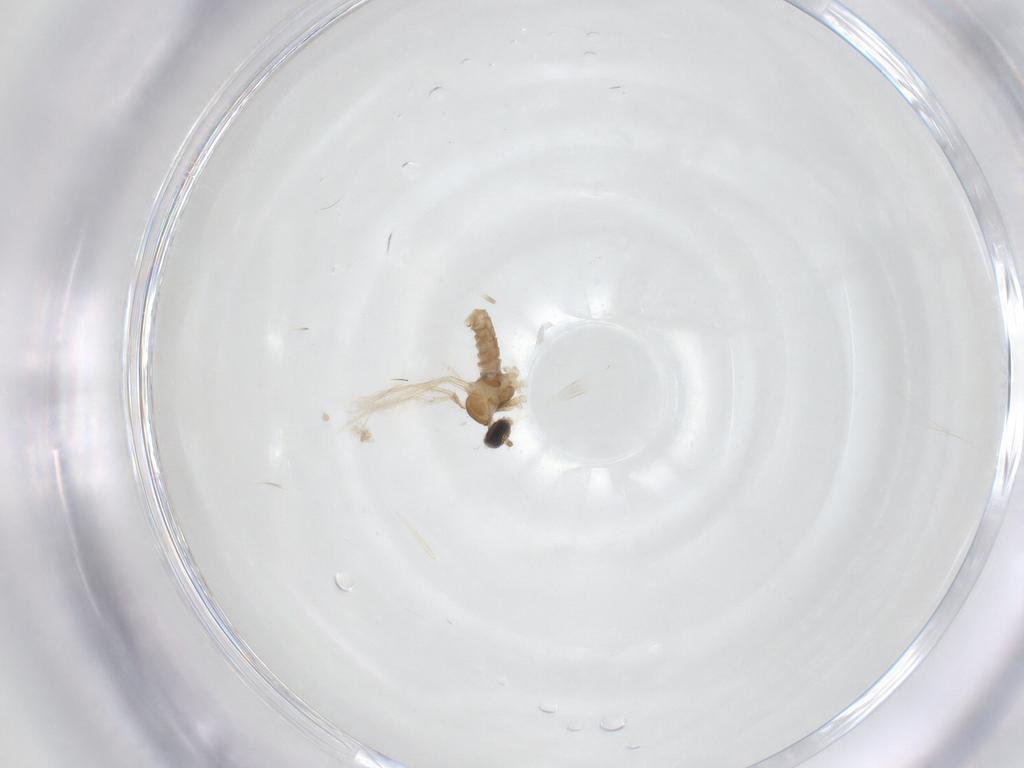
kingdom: Animalia
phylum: Arthropoda
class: Insecta
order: Diptera
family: Cecidomyiidae
